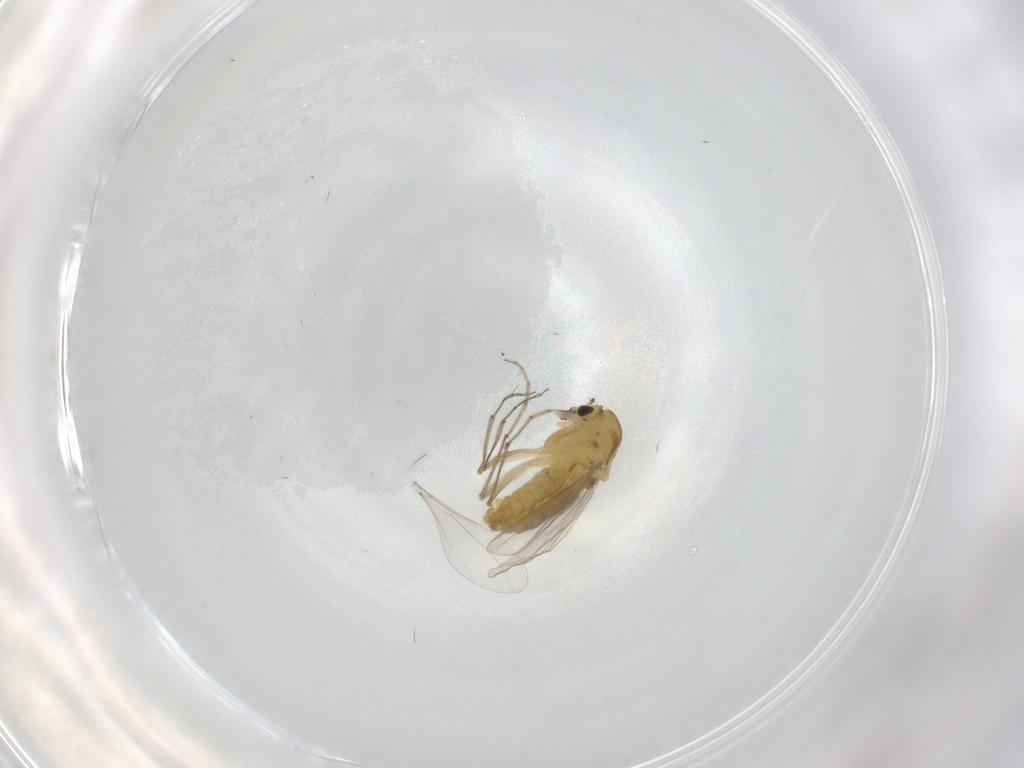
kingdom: Animalia
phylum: Arthropoda
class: Insecta
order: Diptera
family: Chironomidae
